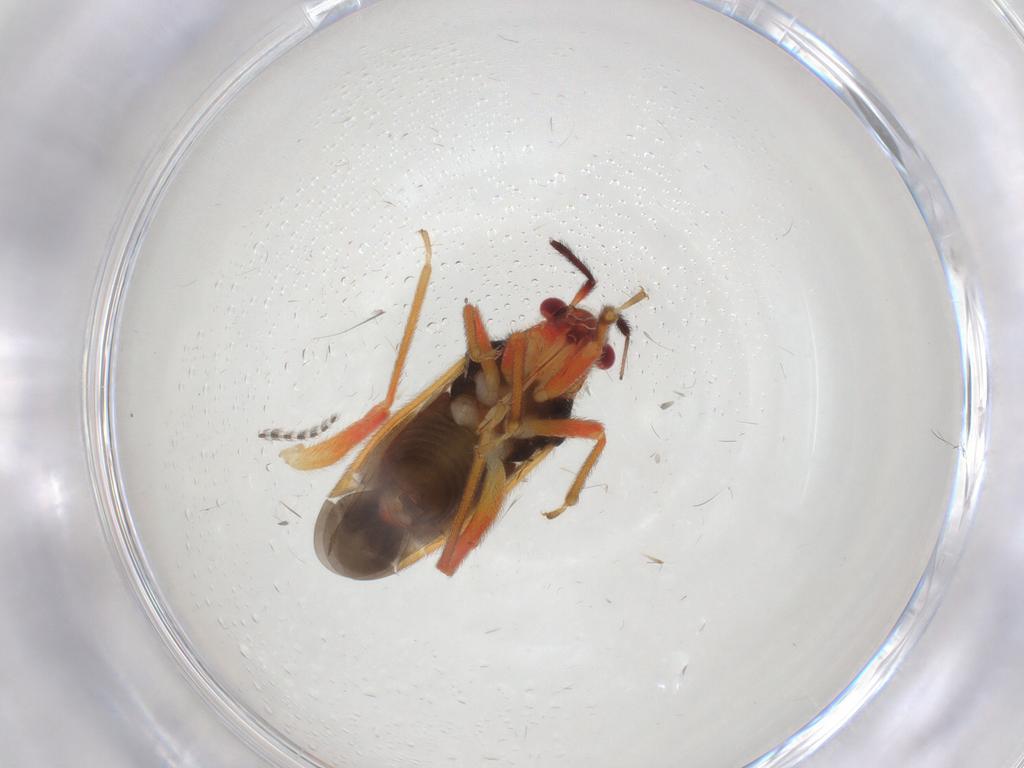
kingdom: Animalia
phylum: Arthropoda
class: Insecta
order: Hemiptera
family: Miridae
